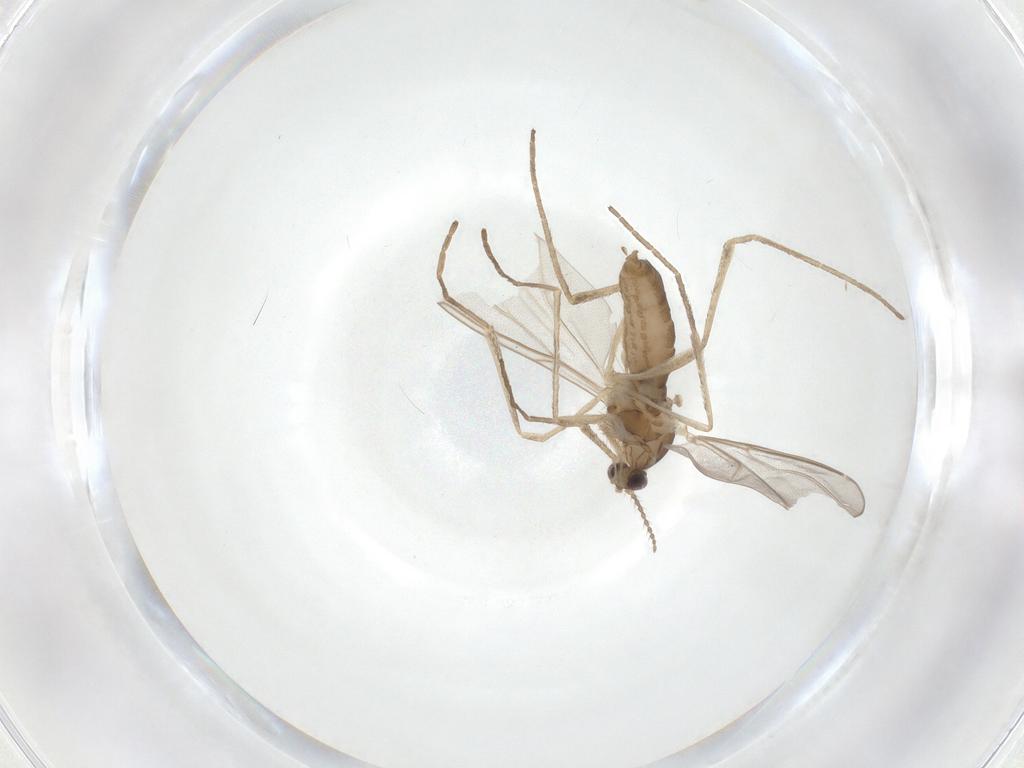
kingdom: Animalia
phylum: Arthropoda
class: Insecta
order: Diptera
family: Cecidomyiidae
